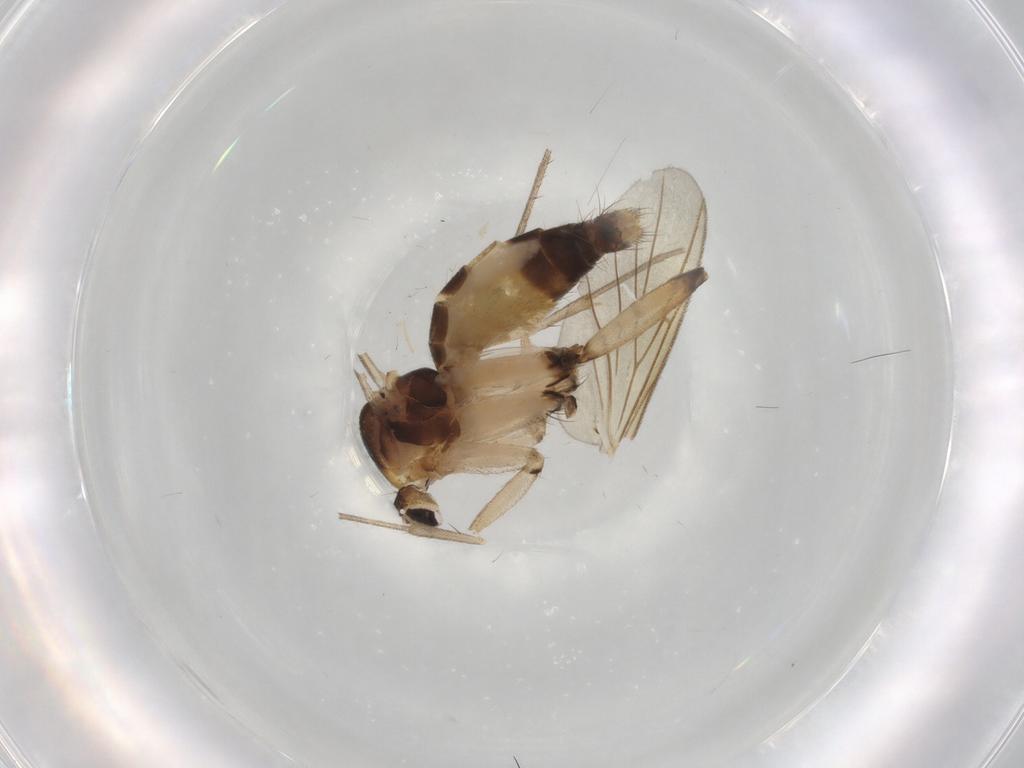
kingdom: Animalia
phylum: Arthropoda
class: Insecta
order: Diptera
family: Mycetophilidae
